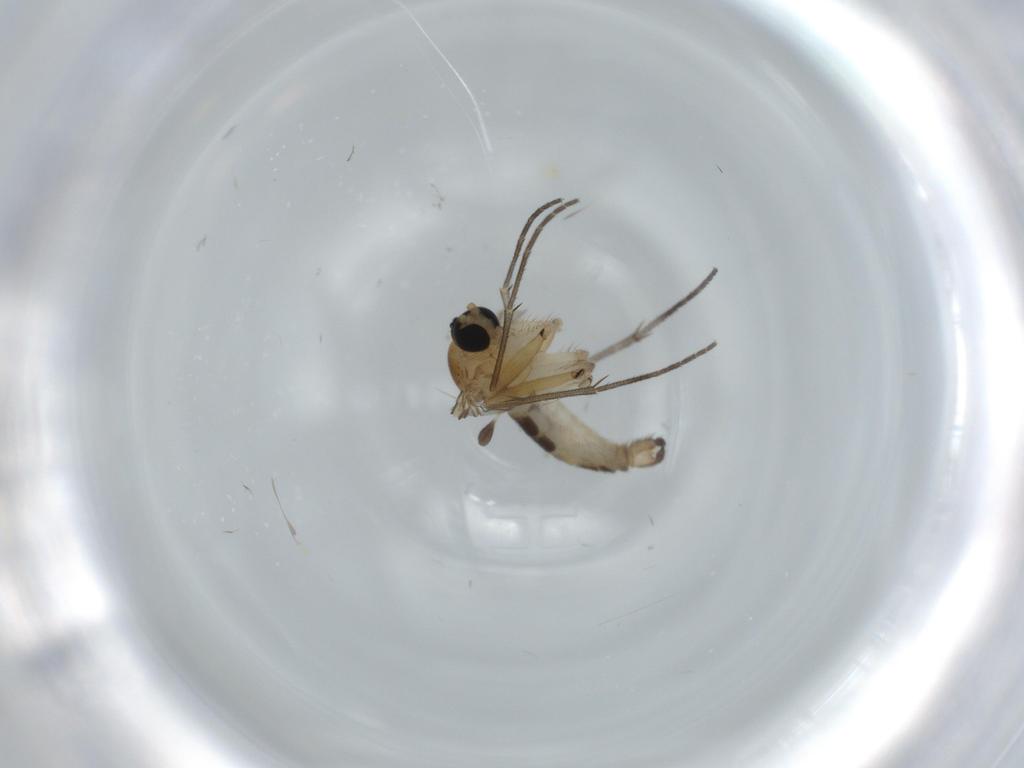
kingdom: Animalia
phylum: Arthropoda
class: Insecta
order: Diptera
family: Sciaridae
